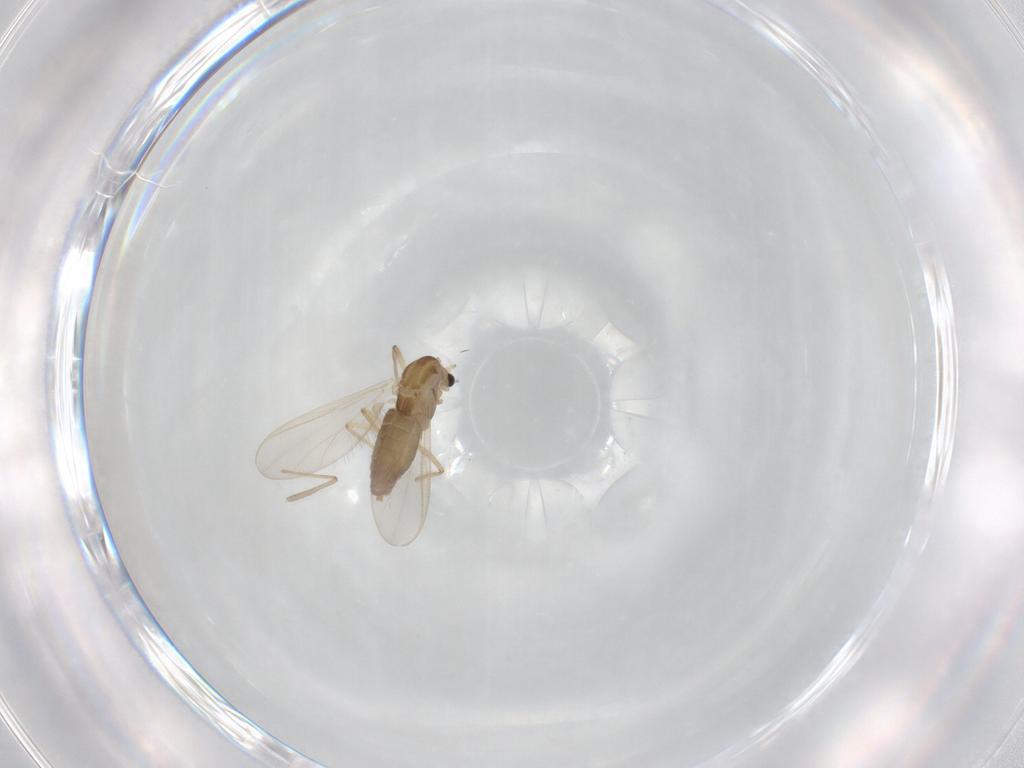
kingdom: Animalia
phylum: Arthropoda
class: Insecta
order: Diptera
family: Chironomidae
